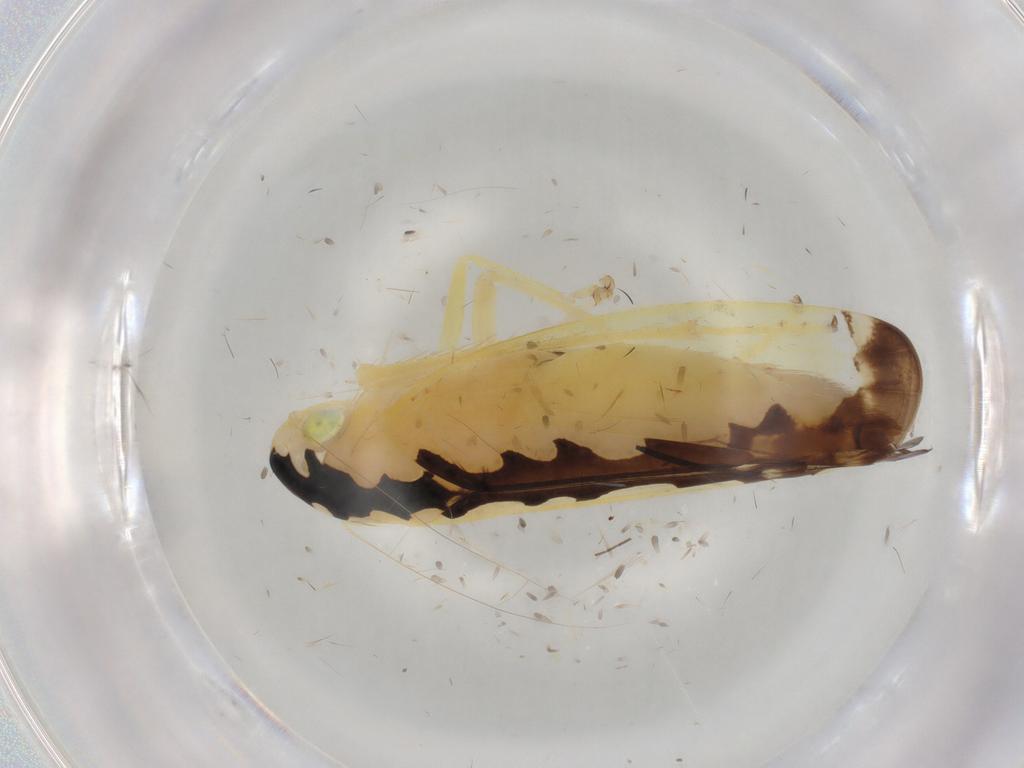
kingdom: Animalia
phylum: Arthropoda
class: Insecta
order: Hemiptera
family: Cicadellidae
